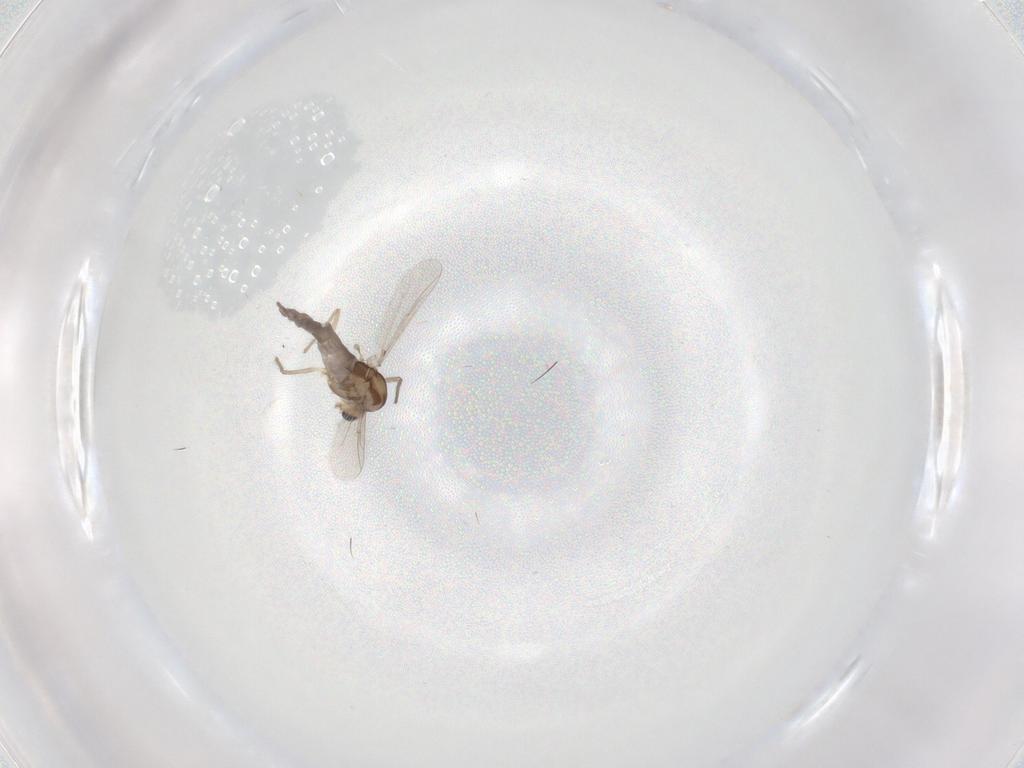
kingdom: Animalia
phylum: Arthropoda
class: Insecta
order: Diptera
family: Chironomidae
